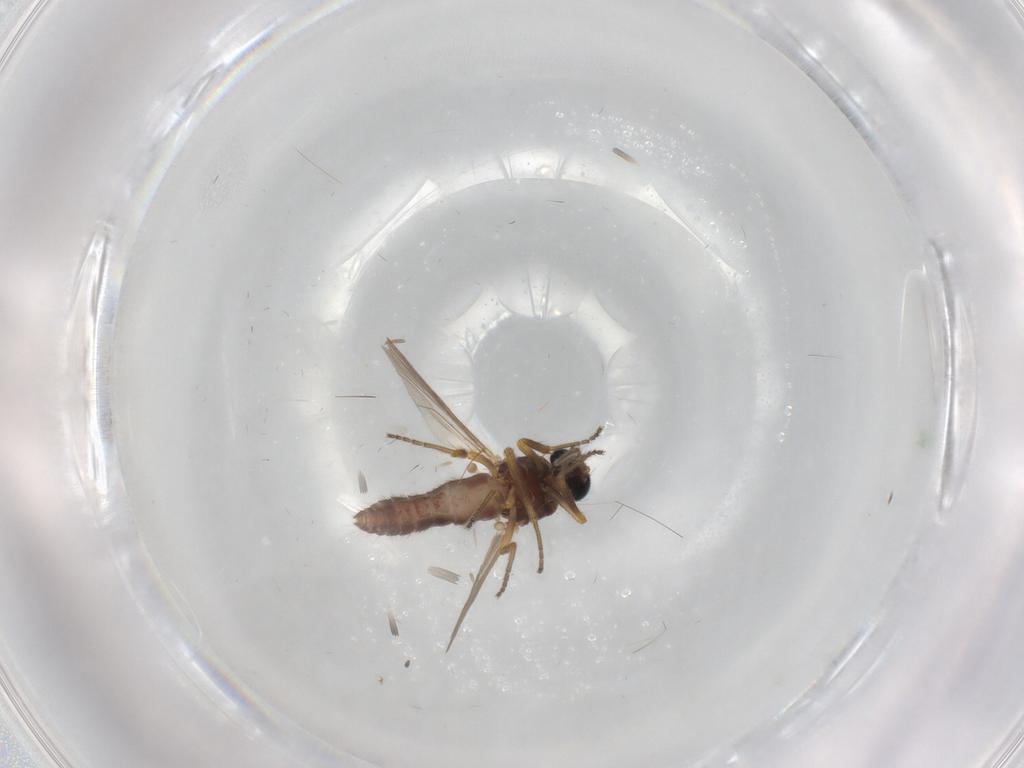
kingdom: Animalia
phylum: Arthropoda
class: Insecta
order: Diptera
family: Ceratopogonidae
